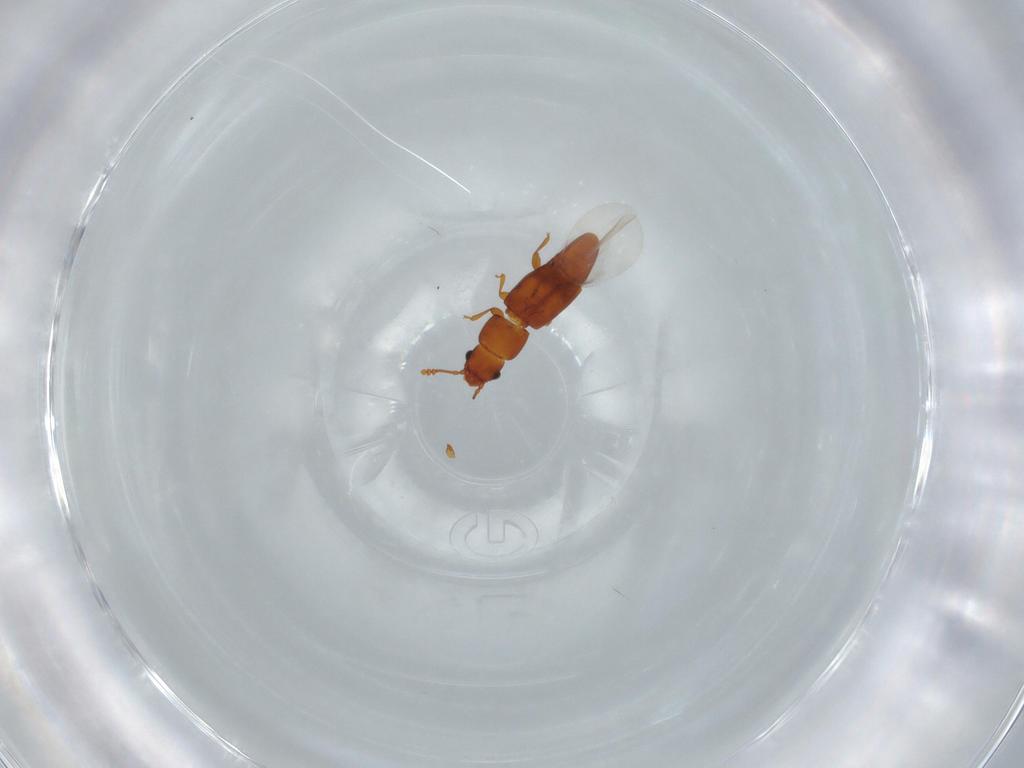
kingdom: Animalia
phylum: Arthropoda
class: Insecta
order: Coleoptera
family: Smicripidae
